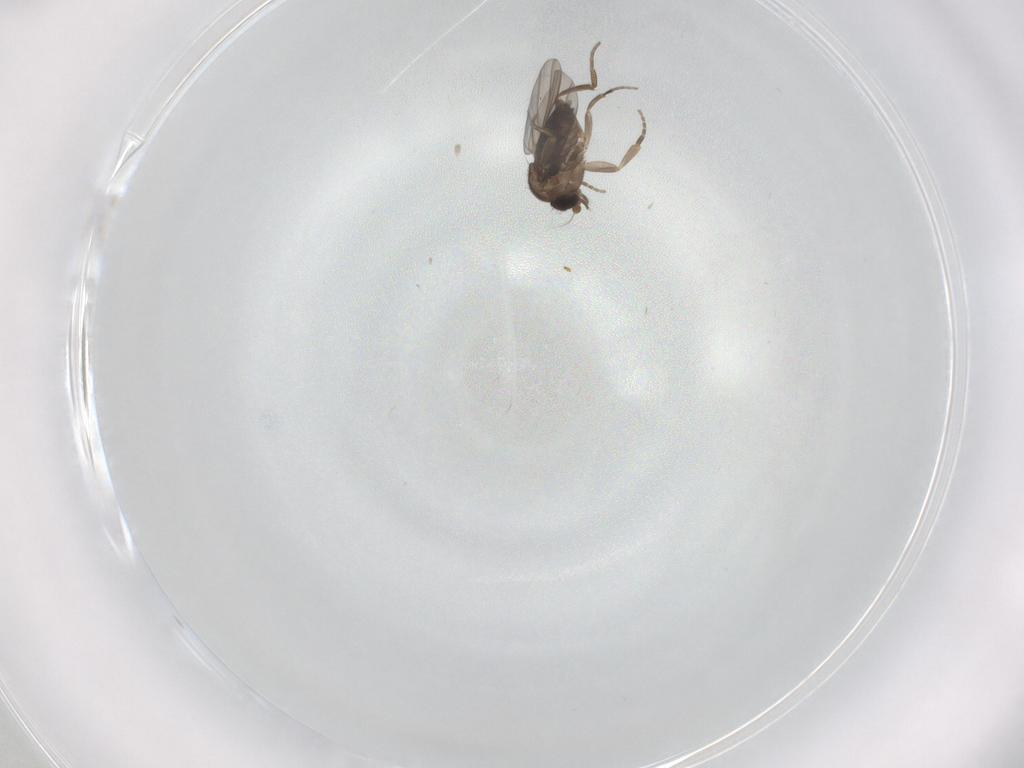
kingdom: Animalia
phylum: Arthropoda
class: Insecta
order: Diptera
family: Phoridae
